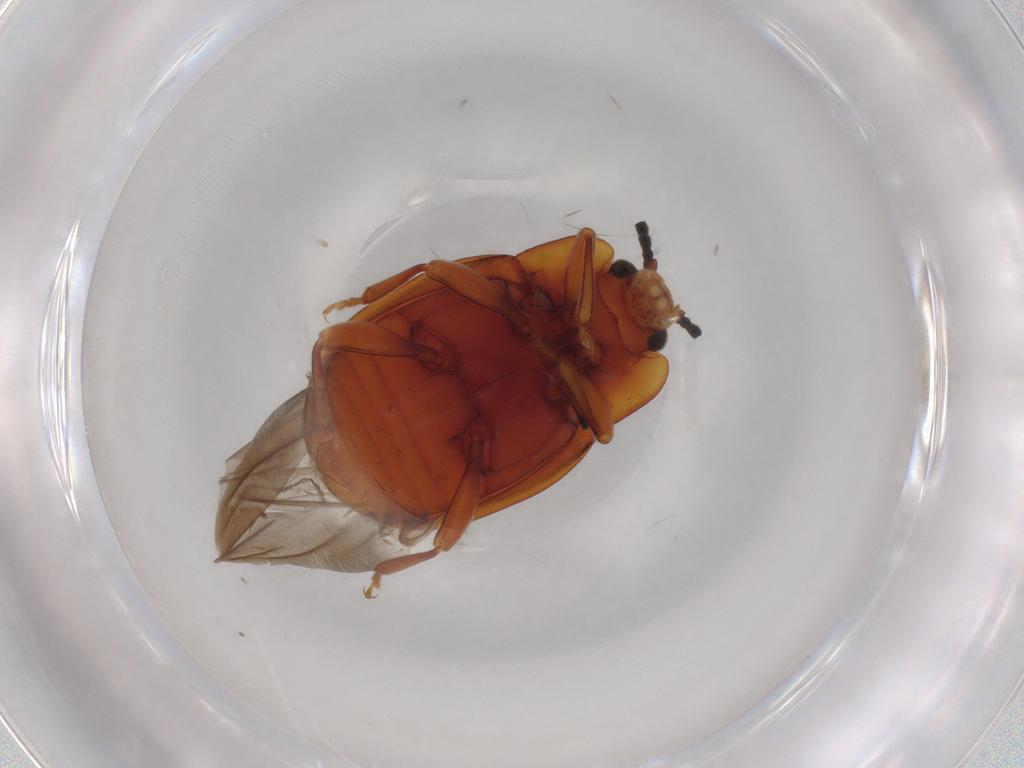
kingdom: Animalia
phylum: Arthropoda
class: Insecta
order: Coleoptera
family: Endomychidae
